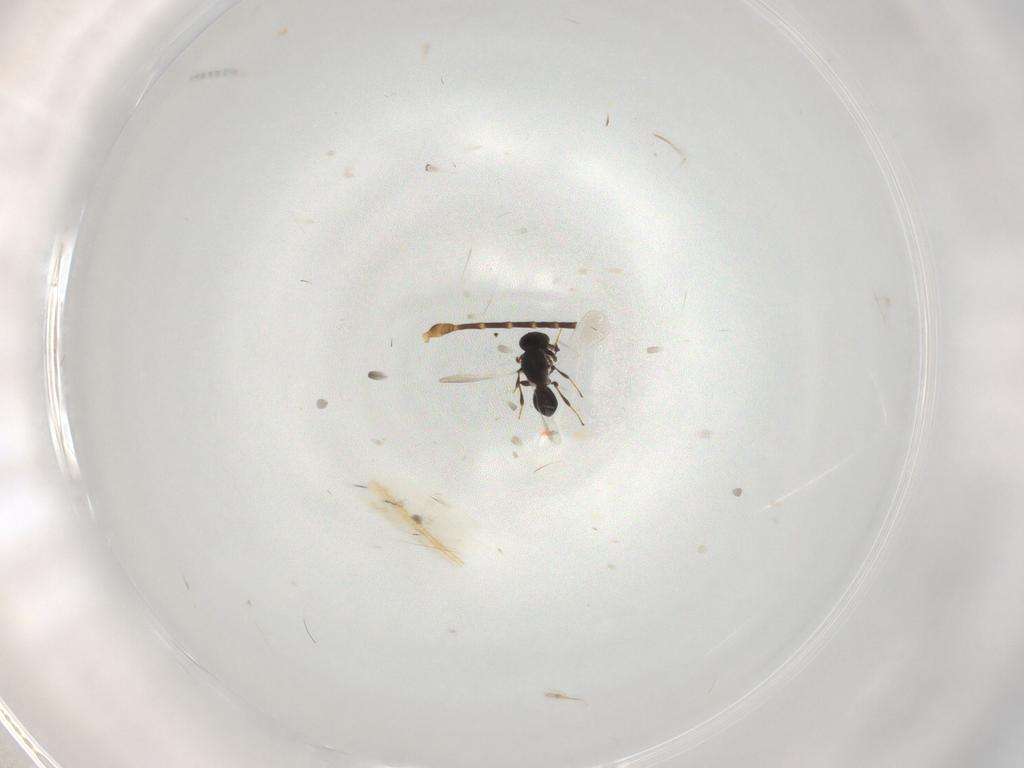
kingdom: Animalia
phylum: Arthropoda
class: Insecta
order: Hymenoptera
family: Ichneumonidae
